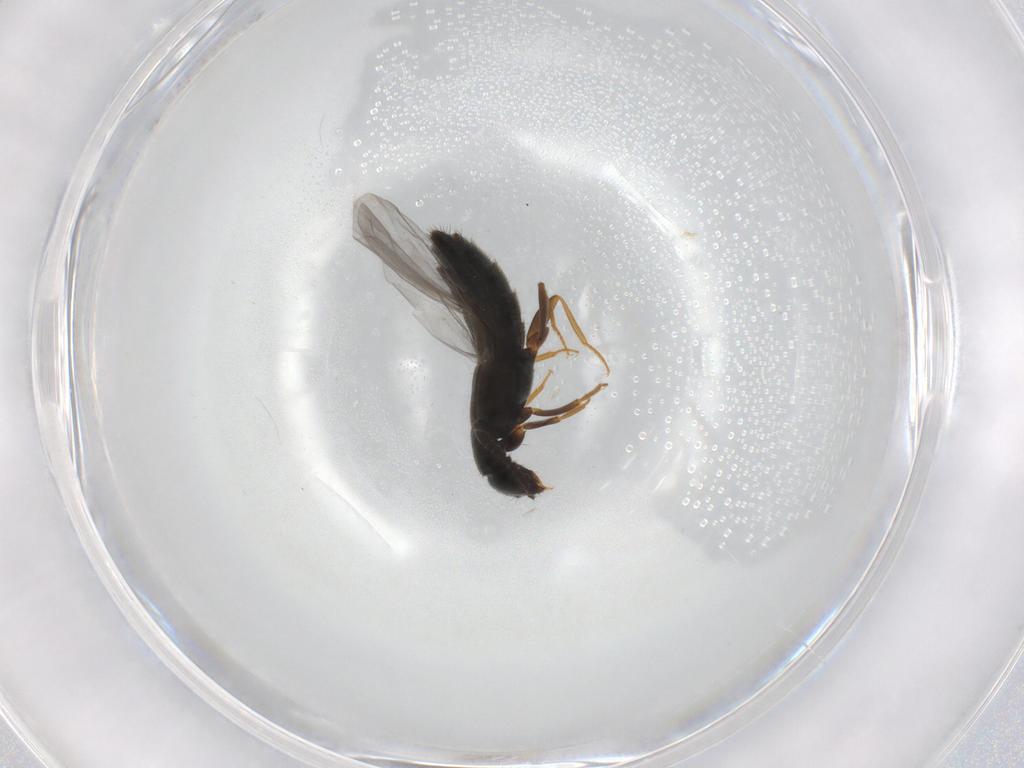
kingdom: Animalia
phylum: Arthropoda
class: Insecta
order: Coleoptera
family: Staphylinidae
